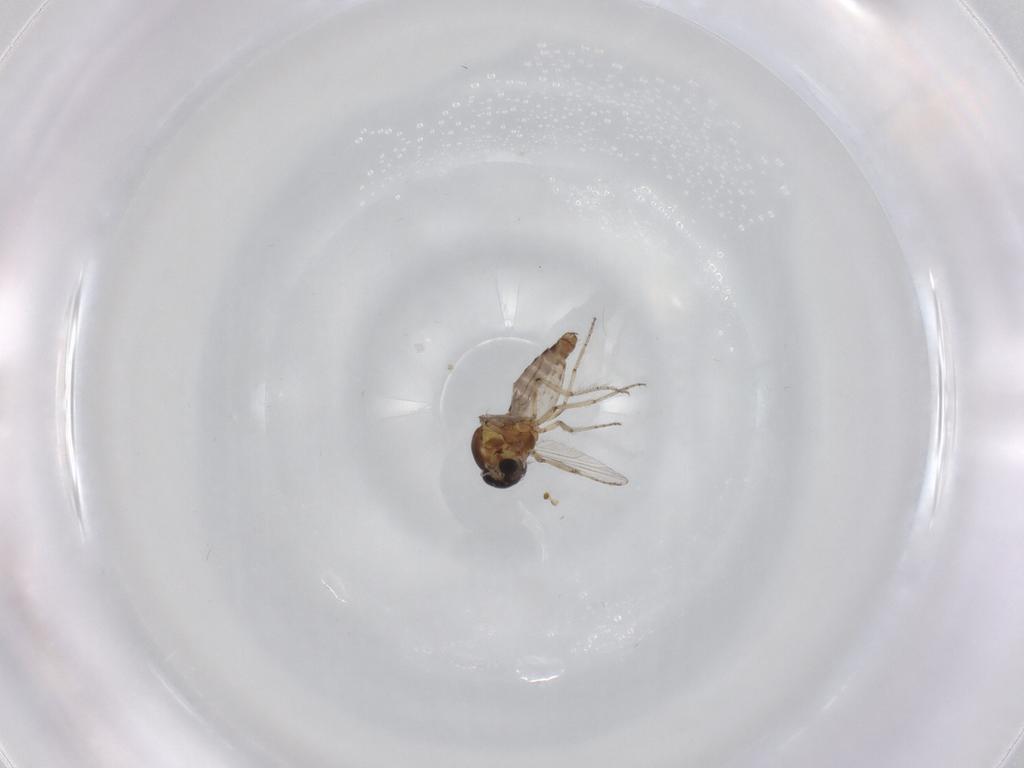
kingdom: Animalia
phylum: Arthropoda
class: Insecta
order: Diptera
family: Ceratopogonidae
